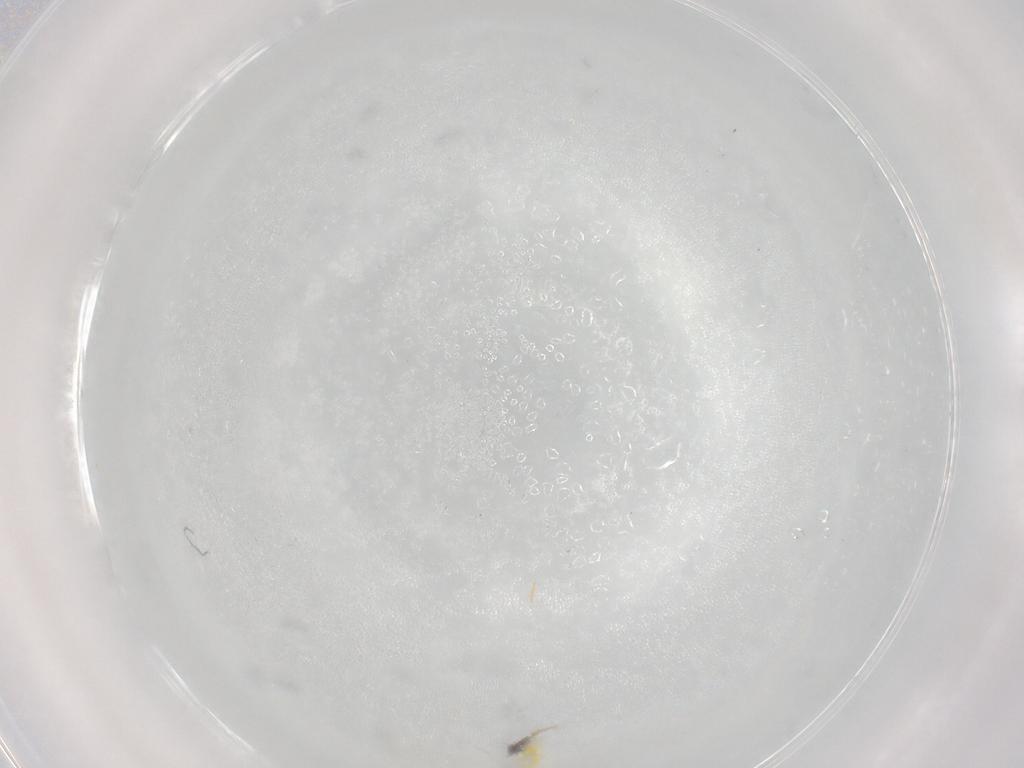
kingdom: Animalia
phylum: Arthropoda
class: Insecta
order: Hemiptera
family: Aleyrodidae
